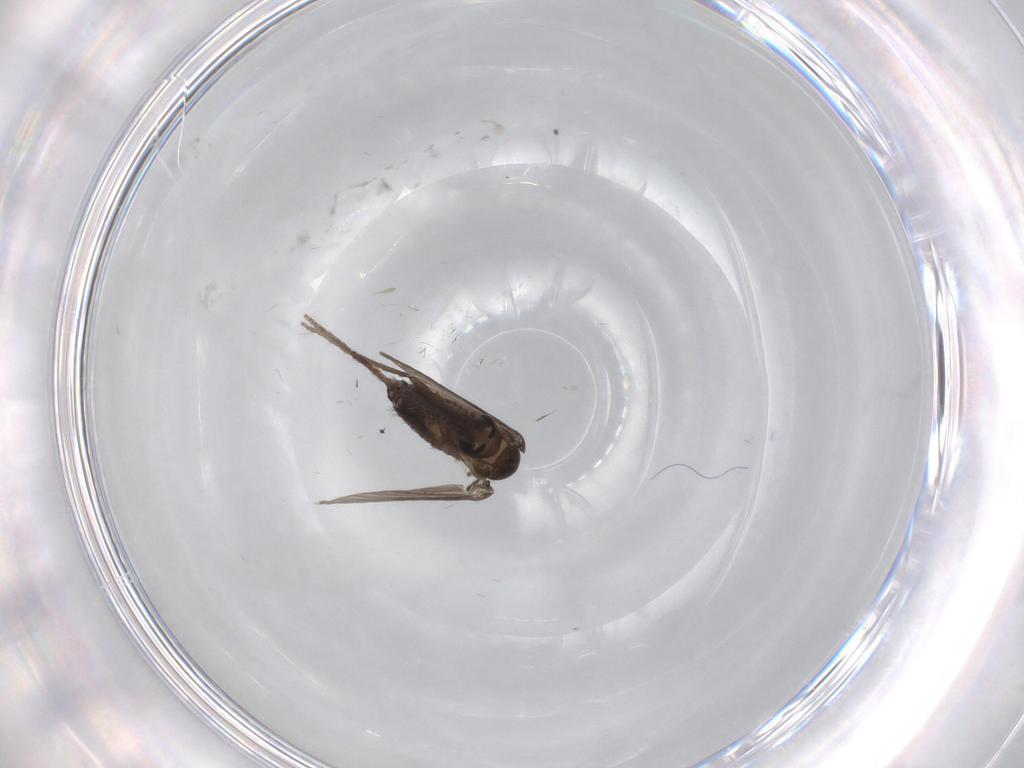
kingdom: Animalia
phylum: Arthropoda
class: Insecta
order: Diptera
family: Psychodidae
